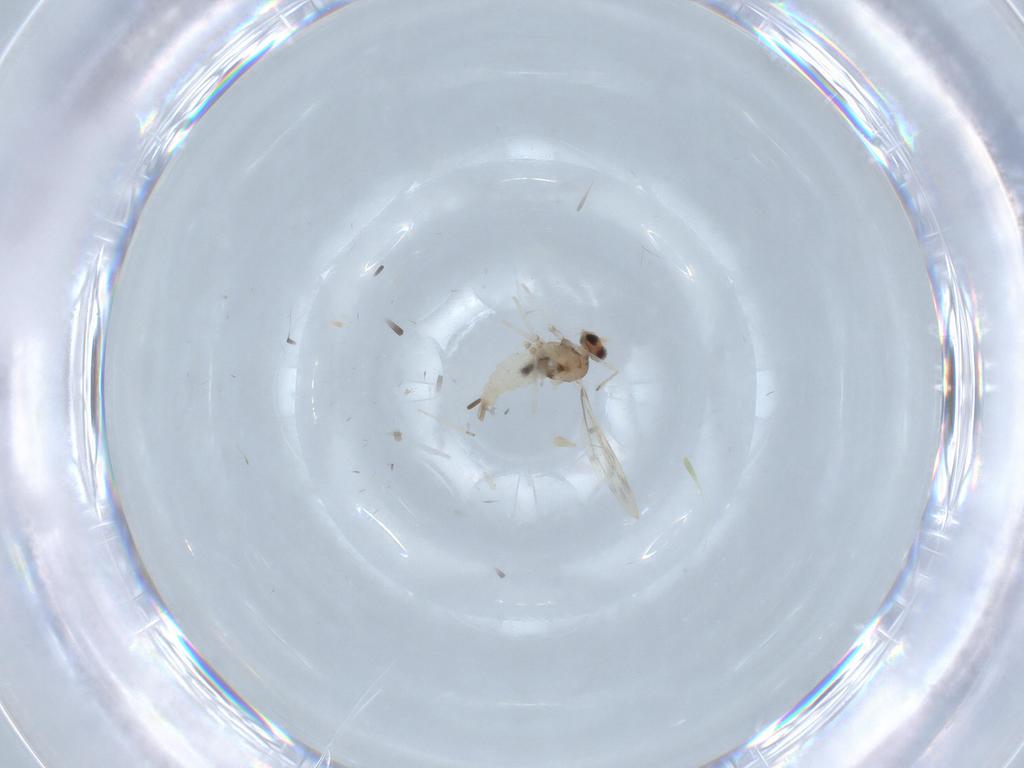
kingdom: Animalia
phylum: Arthropoda
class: Insecta
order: Diptera
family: Cecidomyiidae
